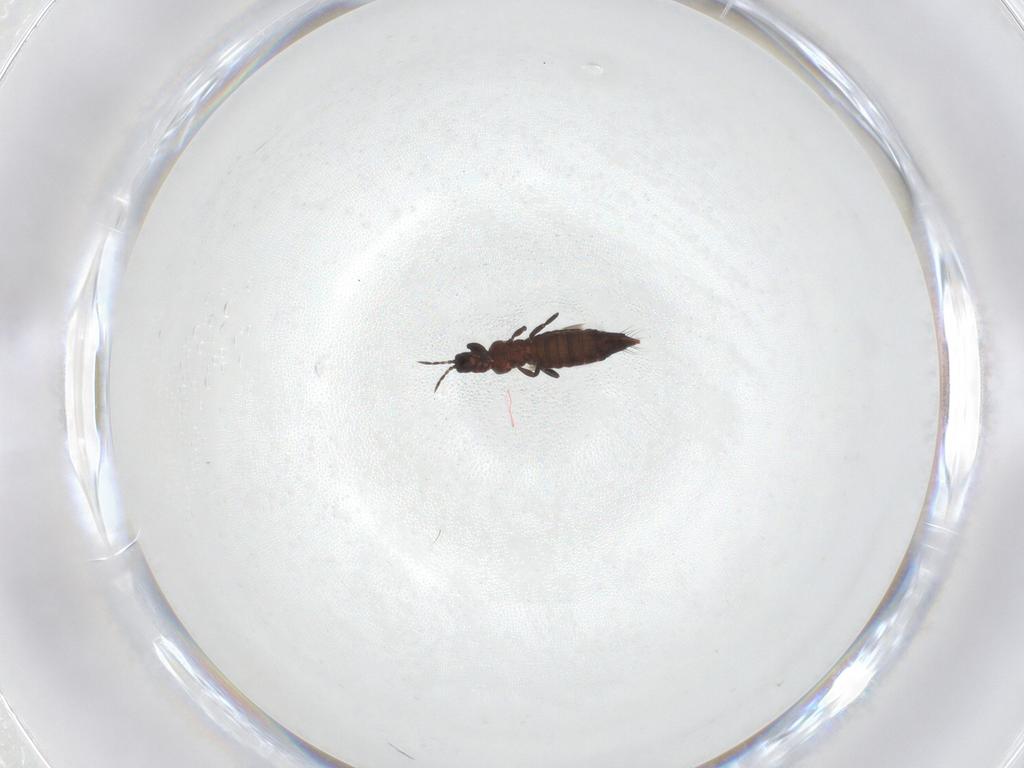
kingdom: Animalia
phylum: Arthropoda
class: Insecta
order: Thysanoptera
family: Aeolothripidae
